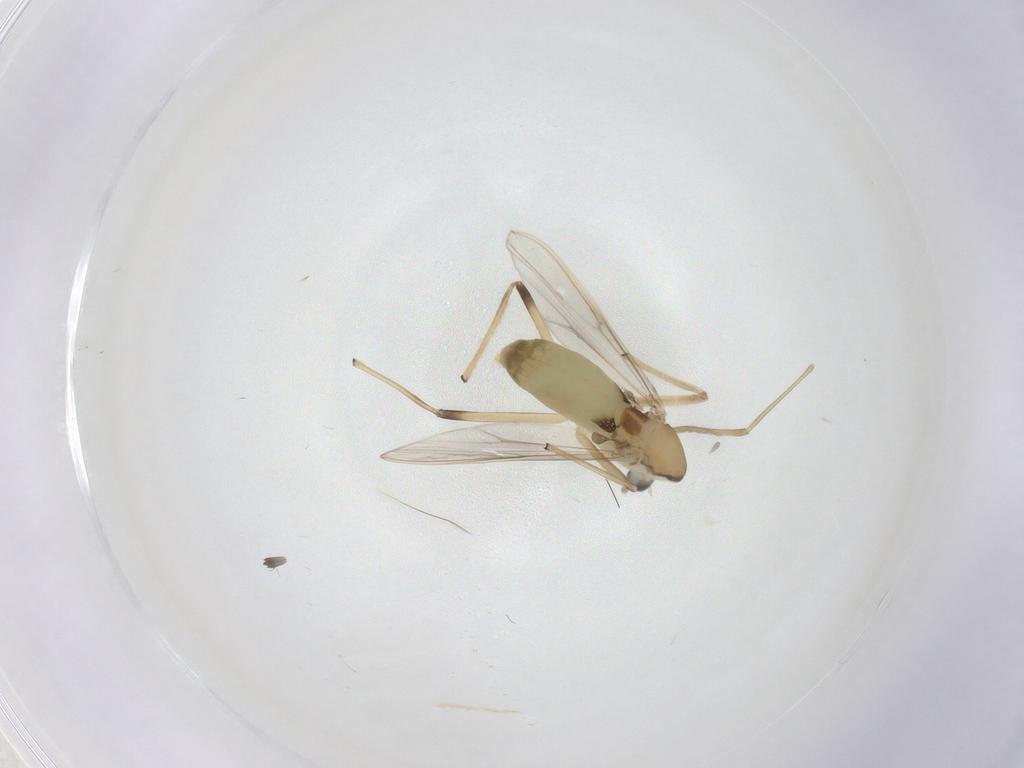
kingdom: Animalia
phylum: Arthropoda
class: Insecta
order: Diptera
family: Chironomidae
